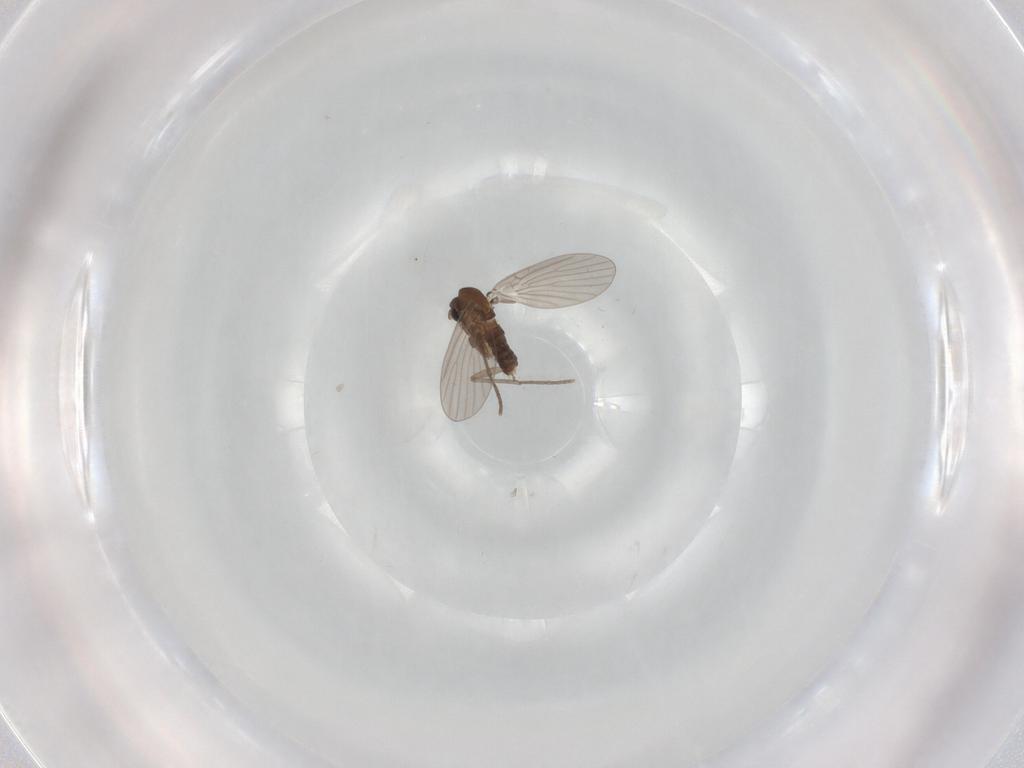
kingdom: Animalia
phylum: Arthropoda
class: Insecta
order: Diptera
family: Psychodidae
